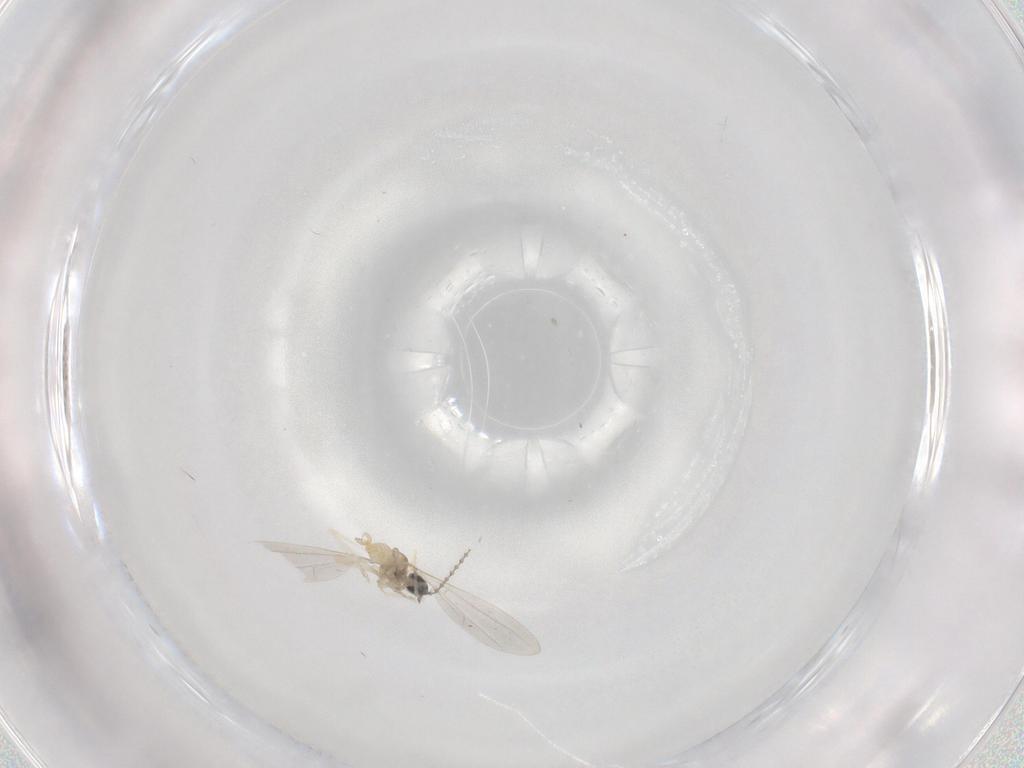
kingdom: Animalia
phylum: Arthropoda
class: Insecta
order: Diptera
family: Cecidomyiidae
